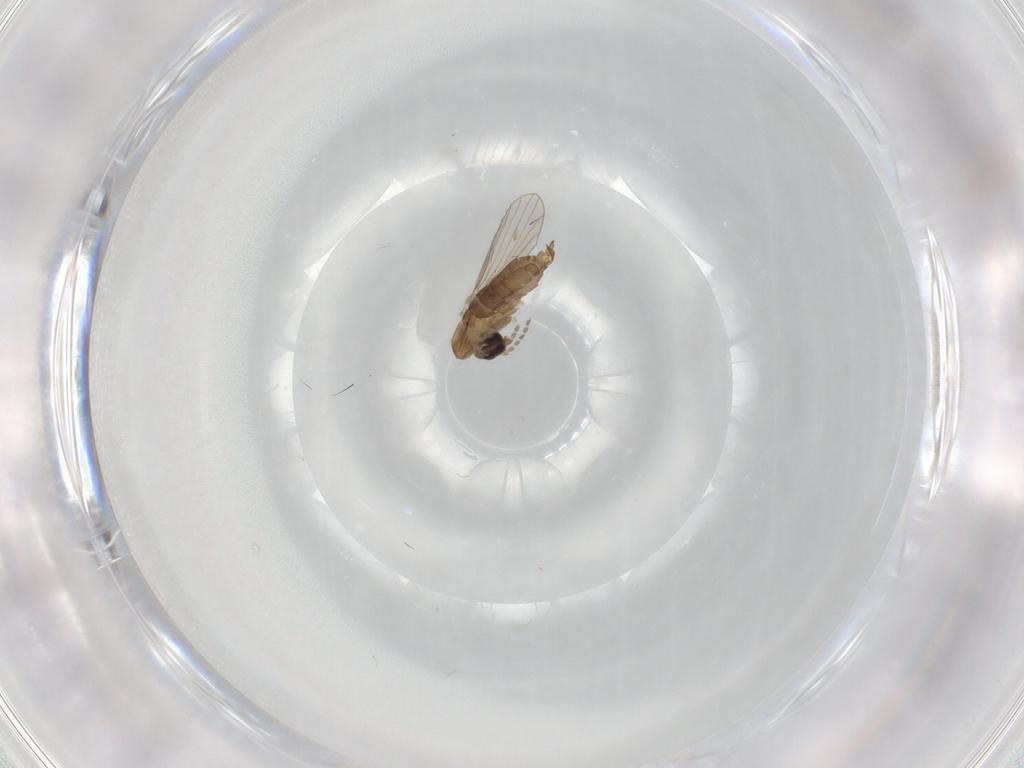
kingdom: Animalia
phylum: Arthropoda
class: Insecta
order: Diptera
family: Psychodidae
